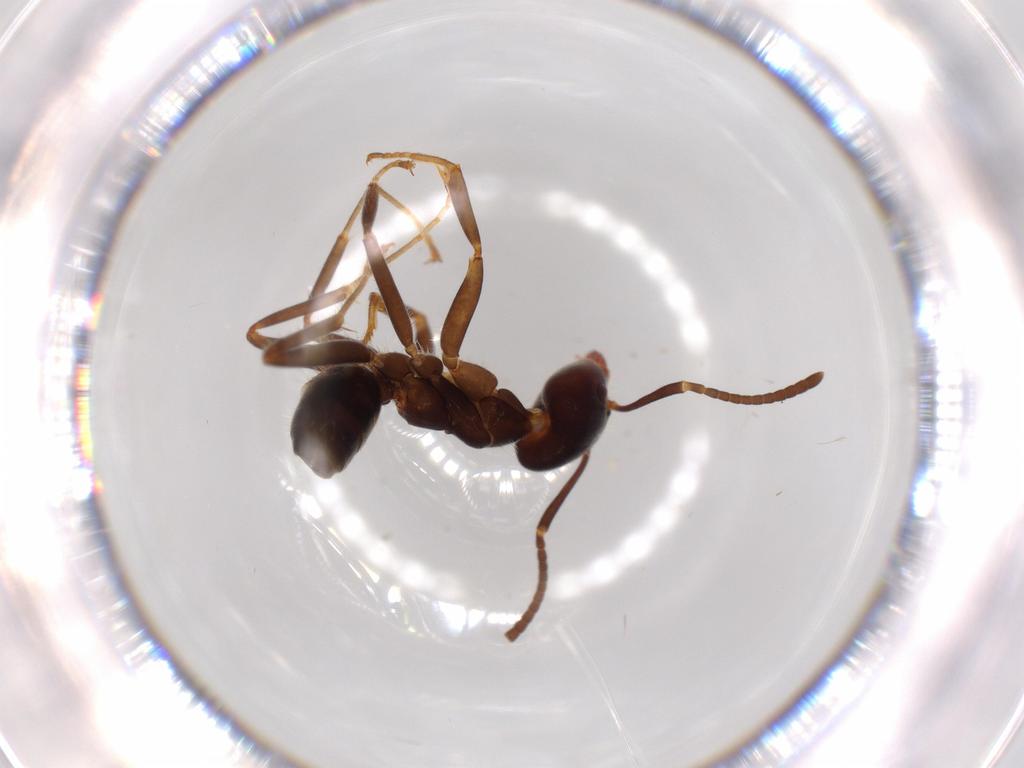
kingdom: Animalia
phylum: Arthropoda
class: Insecta
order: Hymenoptera
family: Formicidae
